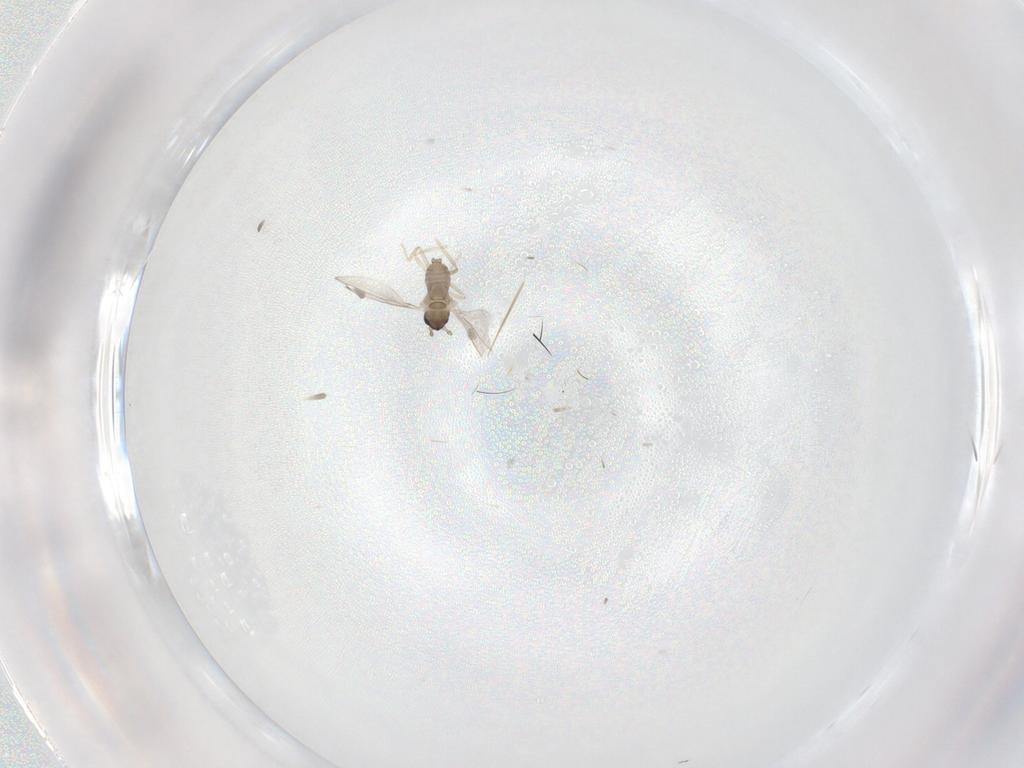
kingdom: Animalia
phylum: Arthropoda
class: Insecta
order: Diptera
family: Cecidomyiidae
